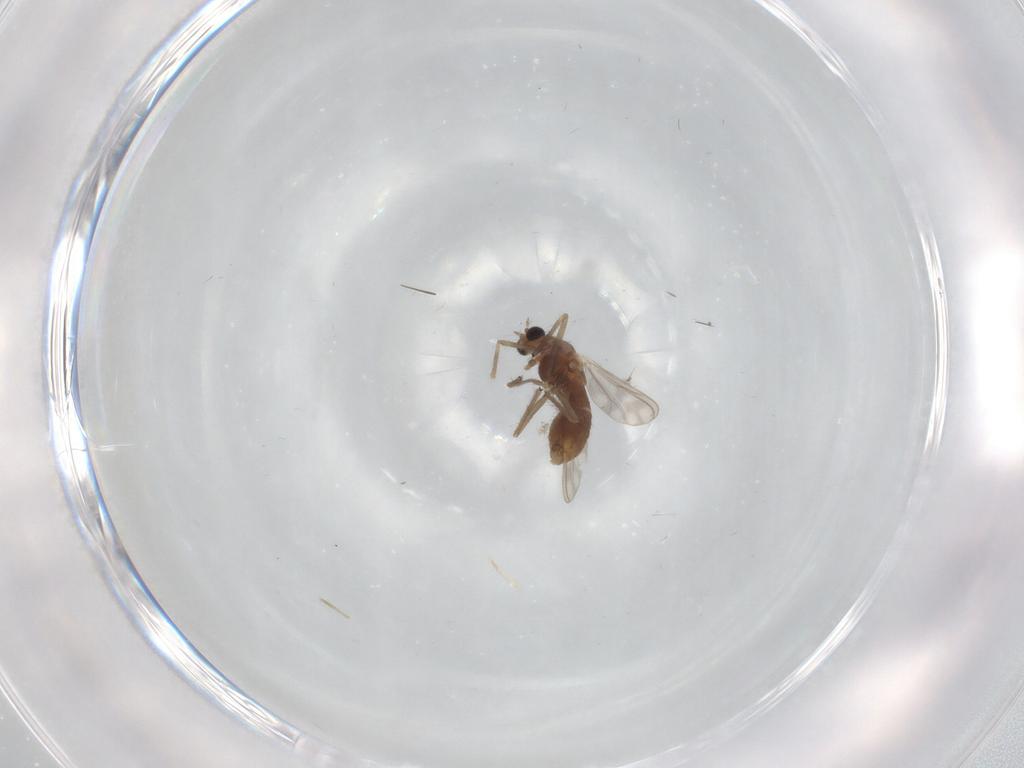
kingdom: Animalia
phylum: Arthropoda
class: Insecta
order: Diptera
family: Chironomidae
